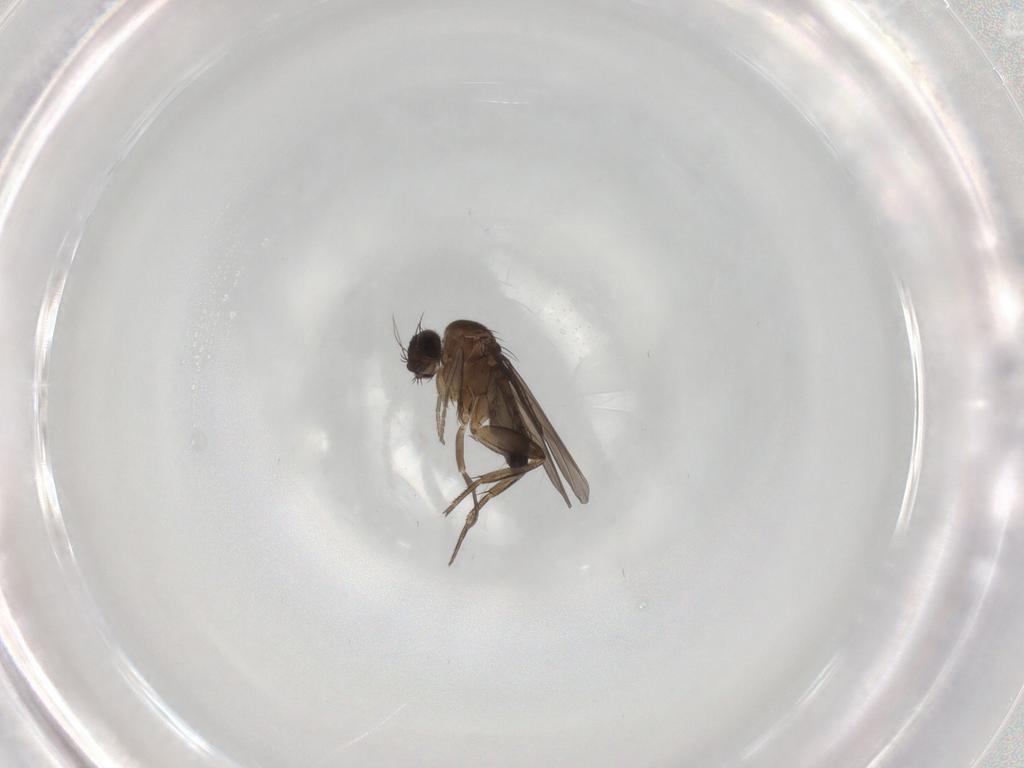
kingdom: Animalia
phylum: Arthropoda
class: Insecta
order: Diptera
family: Phoridae
